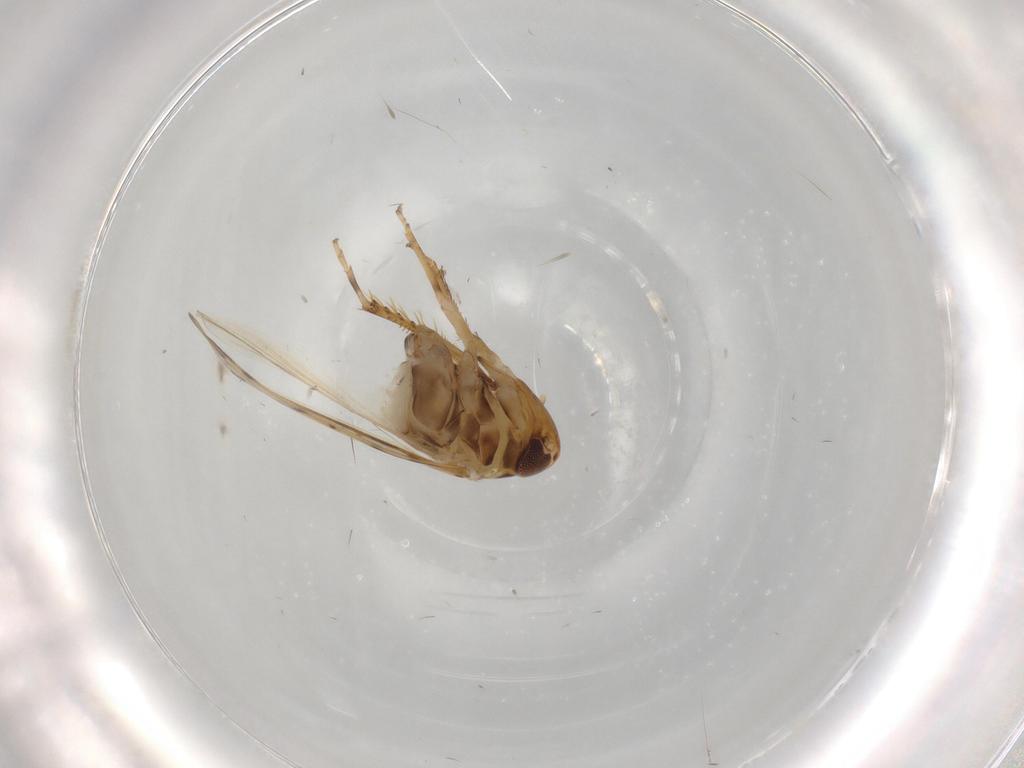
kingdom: Animalia
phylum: Arthropoda
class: Insecta
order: Hemiptera
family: Cicadellidae
